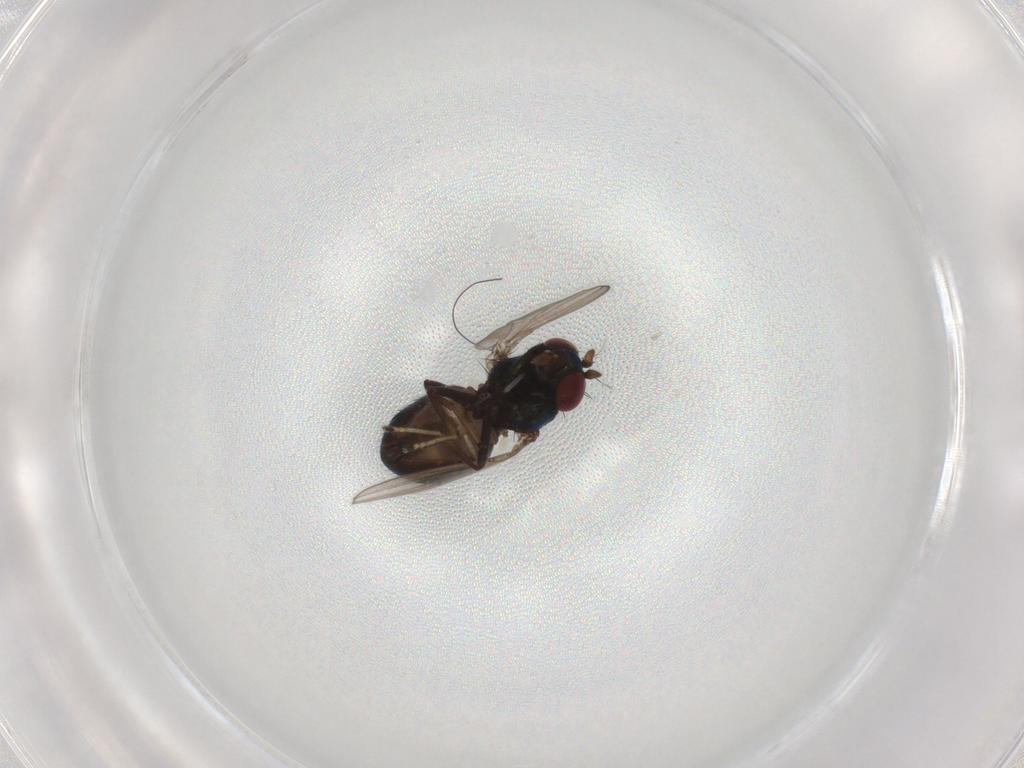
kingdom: Animalia
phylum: Arthropoda
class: Insecta
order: Diptera
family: Ephydridae
